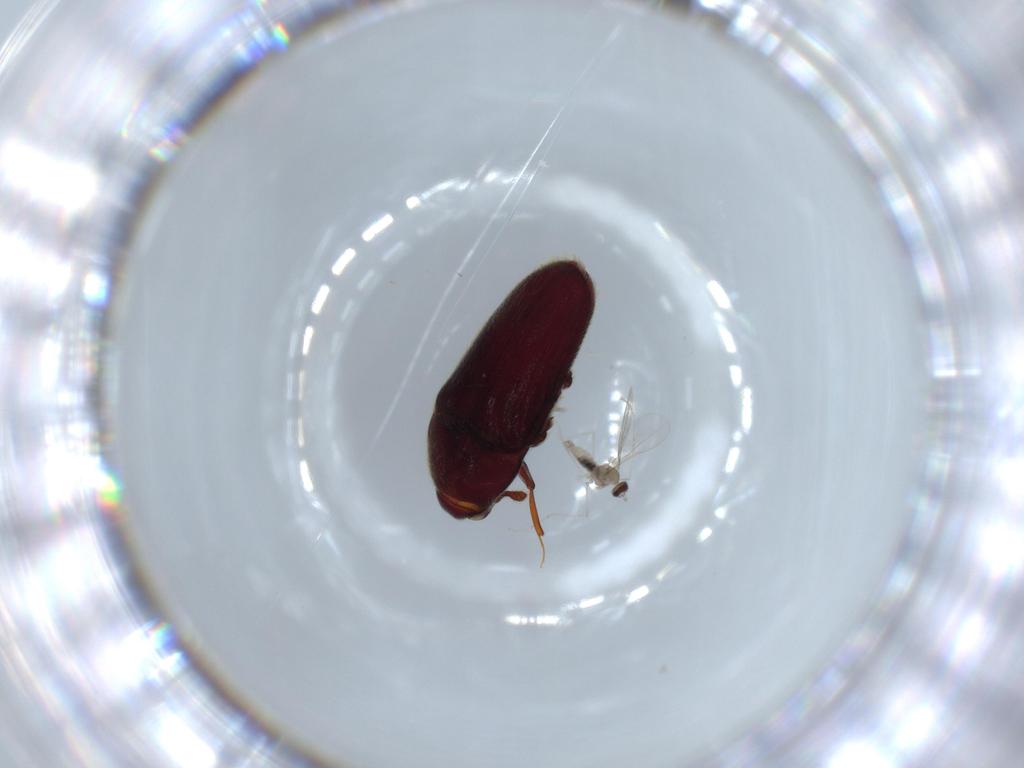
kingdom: Animalia
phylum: Arthropoda
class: Insecta
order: Coleoptera
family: Throscidae
